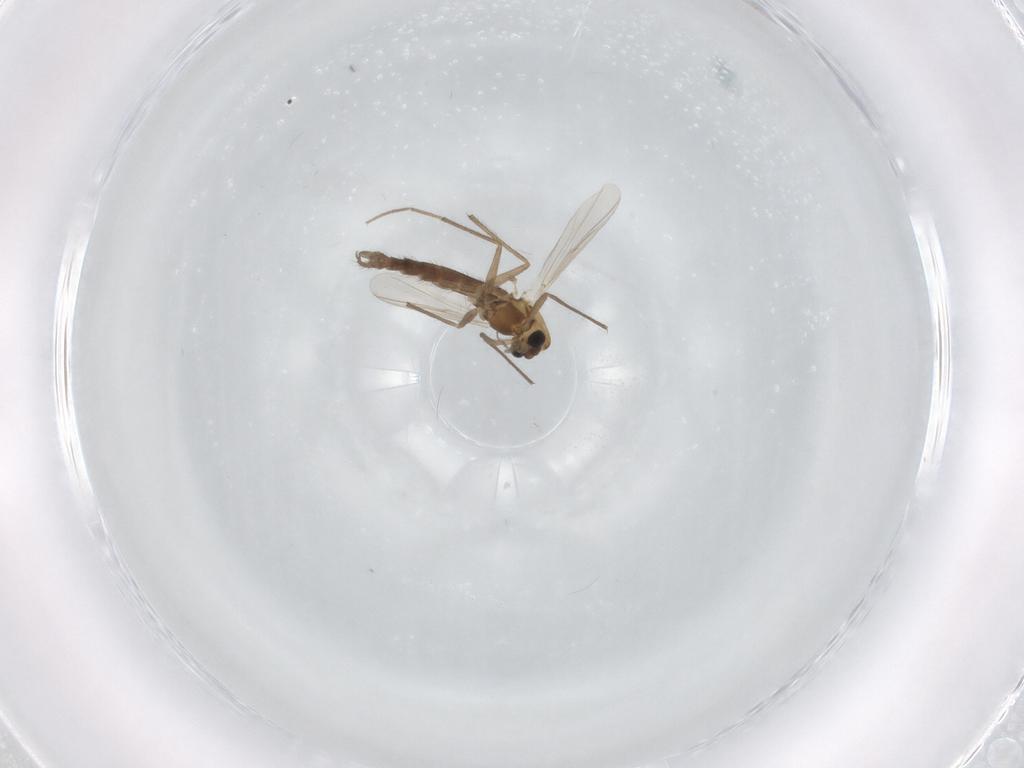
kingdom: Animalia
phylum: Arthropoda
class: Insecta
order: Diptera
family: Chironomidae
